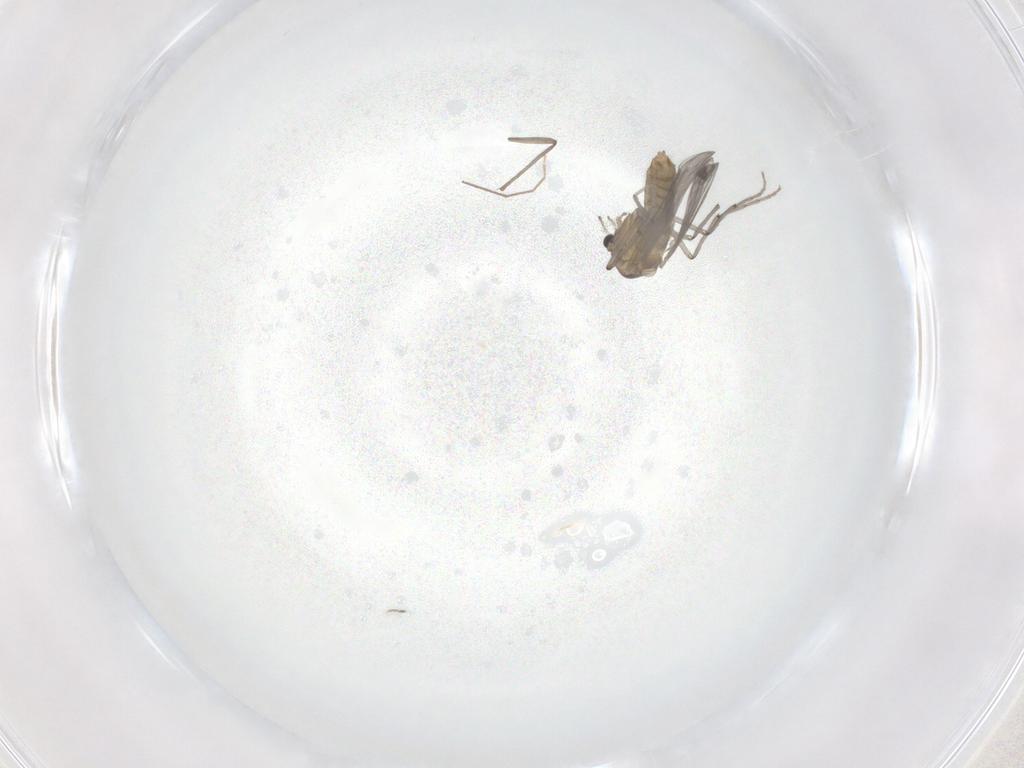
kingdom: Animalia
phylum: Arthropoda
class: Insecta
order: Diptera
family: Chironomidae
